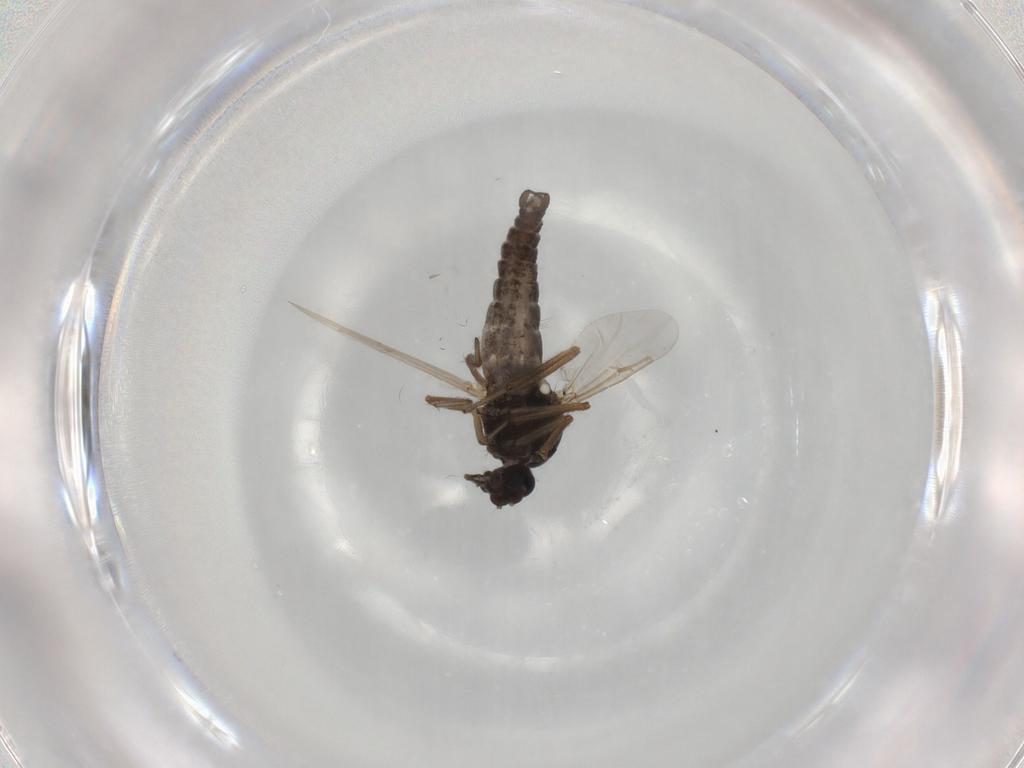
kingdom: Animalia
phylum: Arthropoda
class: Insecta
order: Diptera
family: Ceratopogonidae
